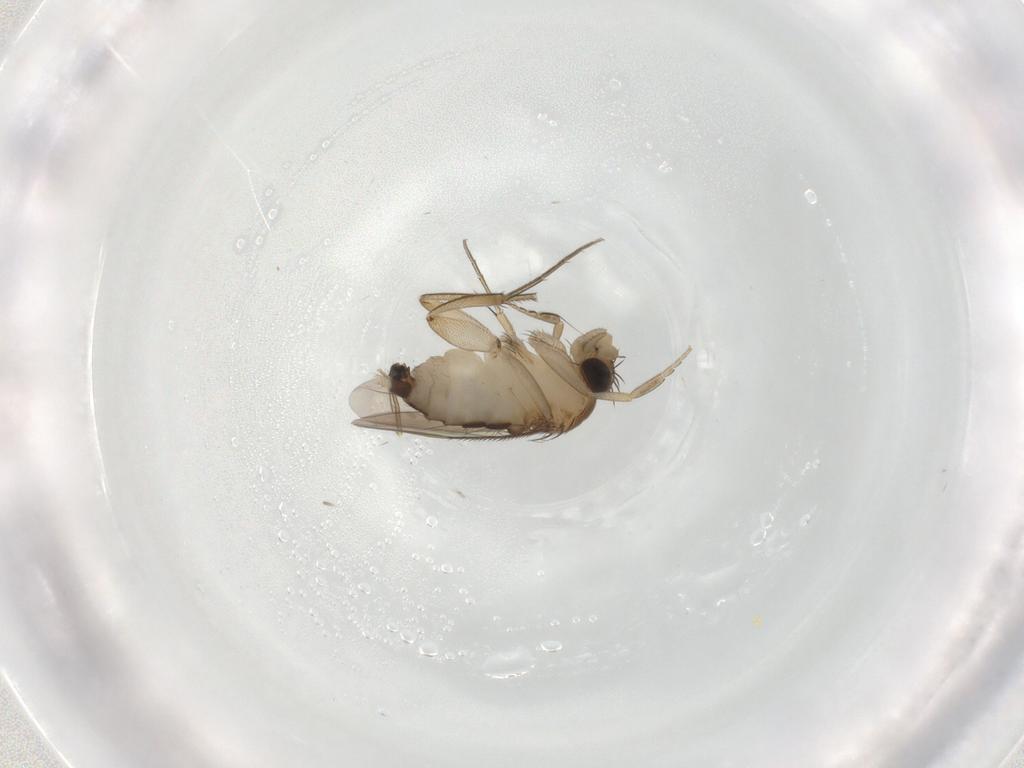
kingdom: Animalia
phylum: Arthropoda
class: Insecta
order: Diptera
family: Phoridae
